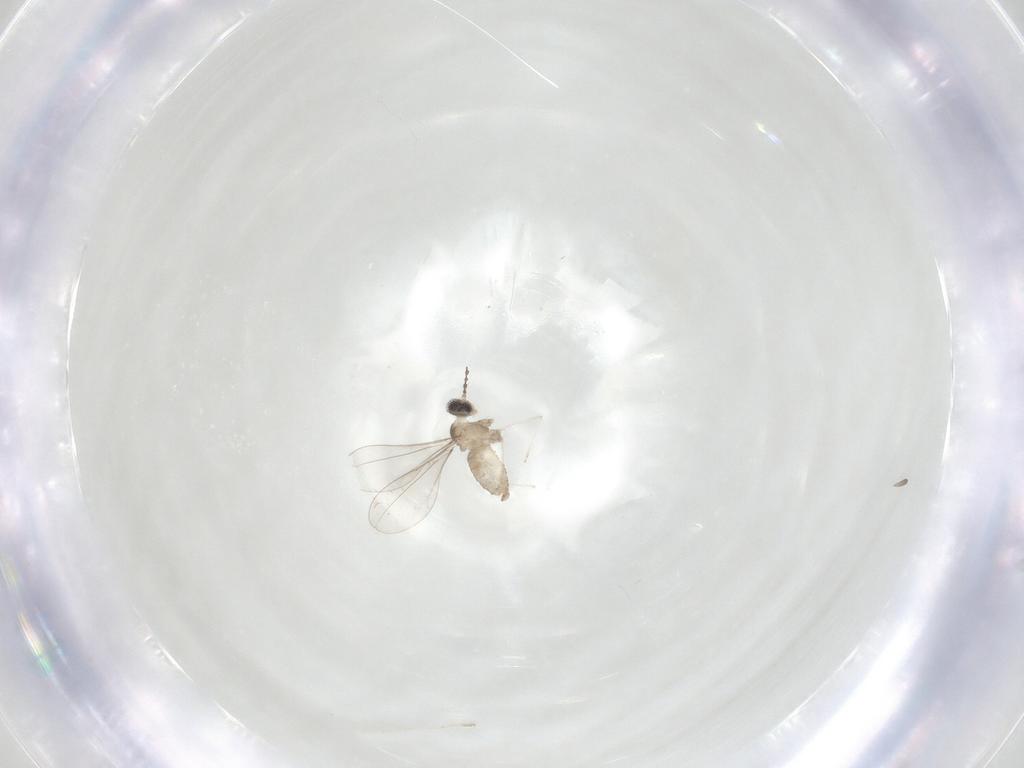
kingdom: Animalia
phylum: Arthropoda
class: Insecta
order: Diptera
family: Cecidomyiidae
